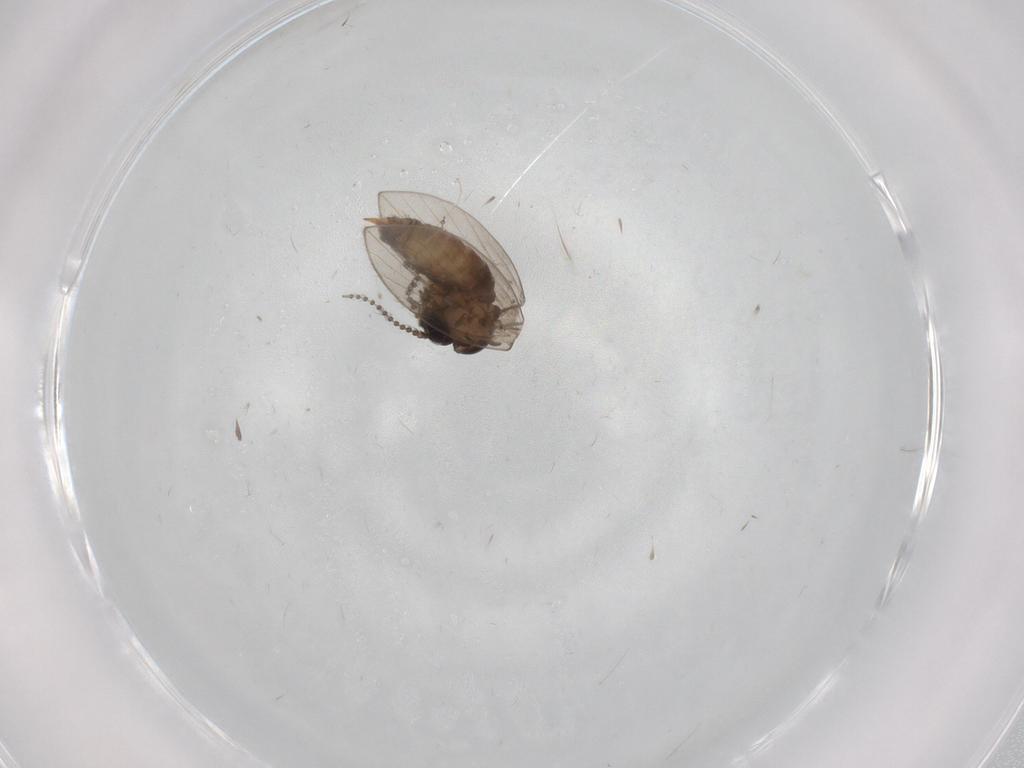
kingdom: Animalia
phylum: Arthropoda
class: Insecta
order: Diptera
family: Psychodidae
